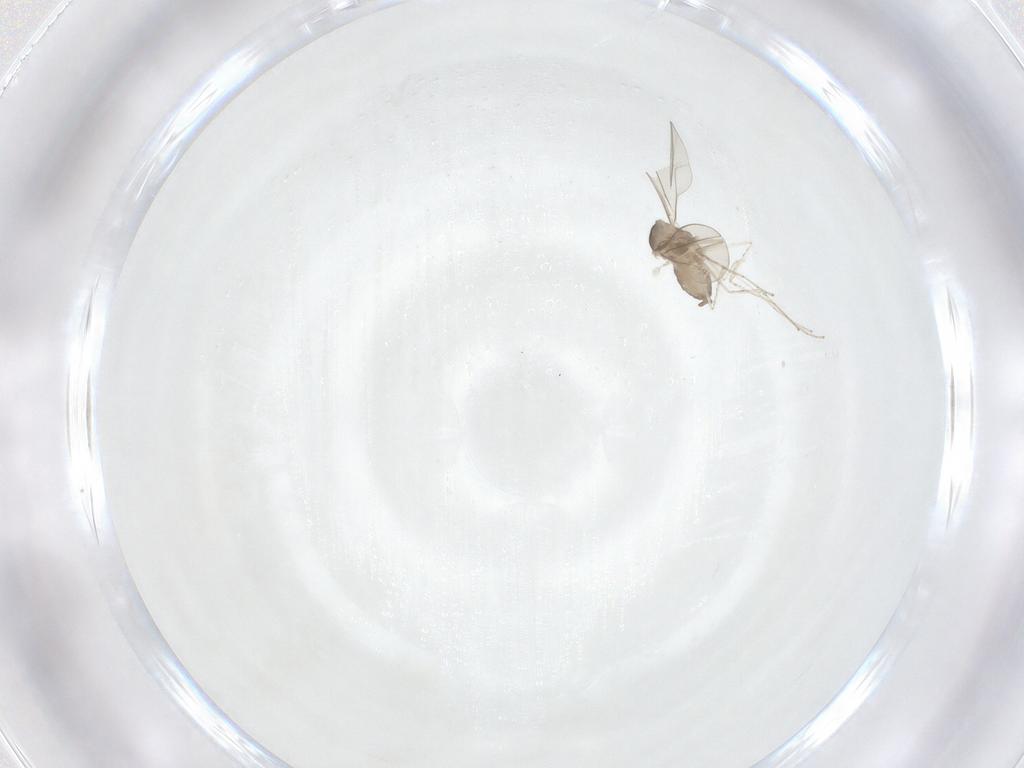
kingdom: Animalia
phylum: Arthropoda
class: Insecta
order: Diptera
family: Cecidomyiidae
